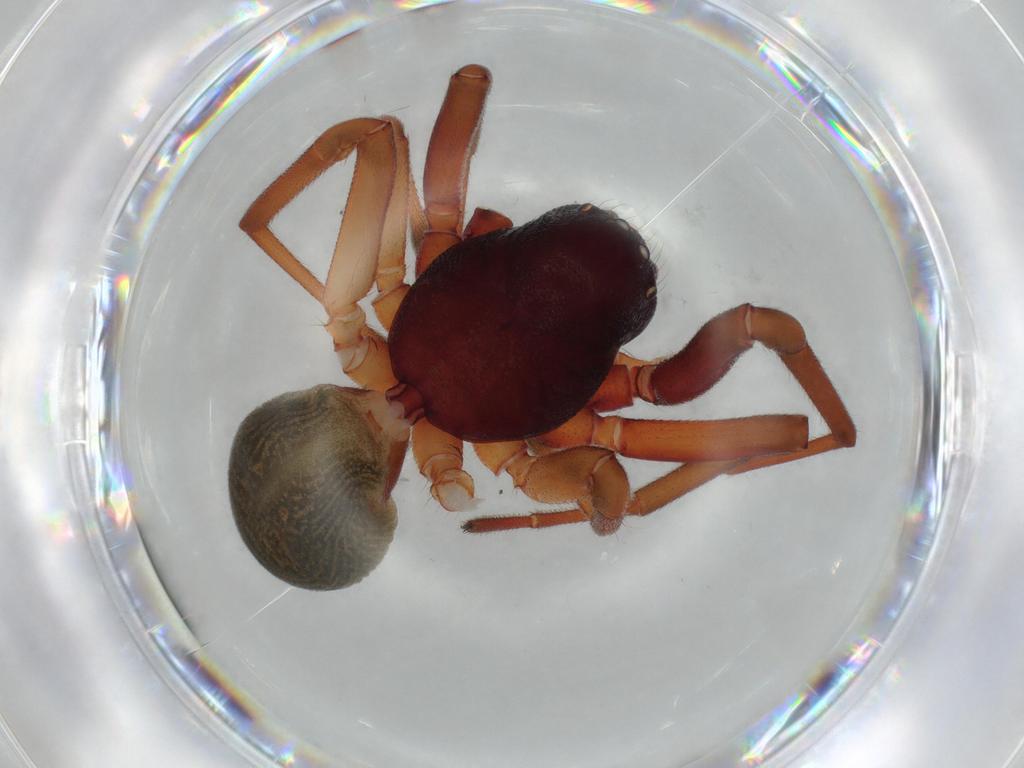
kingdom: Animalia
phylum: Arthropoda
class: Arachnida
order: Araneae
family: Trachelidae
